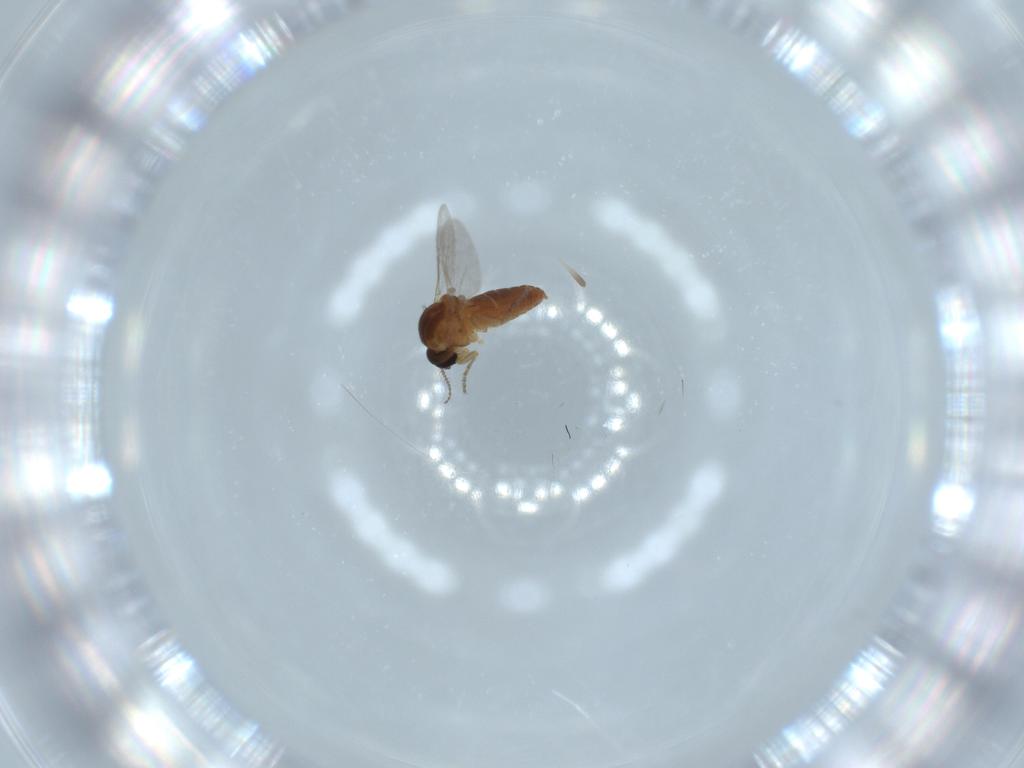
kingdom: Animalia
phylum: Arthropoda
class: Insecta
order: Diptera
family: Ceratopogonidae
